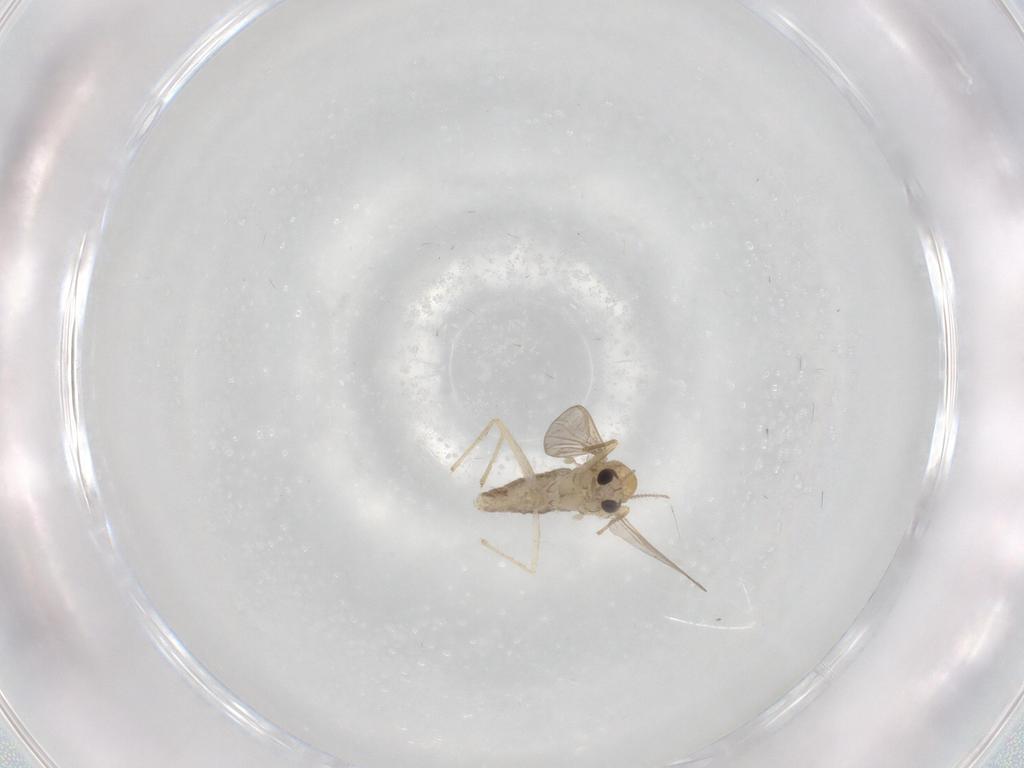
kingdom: Animalia
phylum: Arthropoda
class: Insecta
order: Diptera
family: Chironomidae
